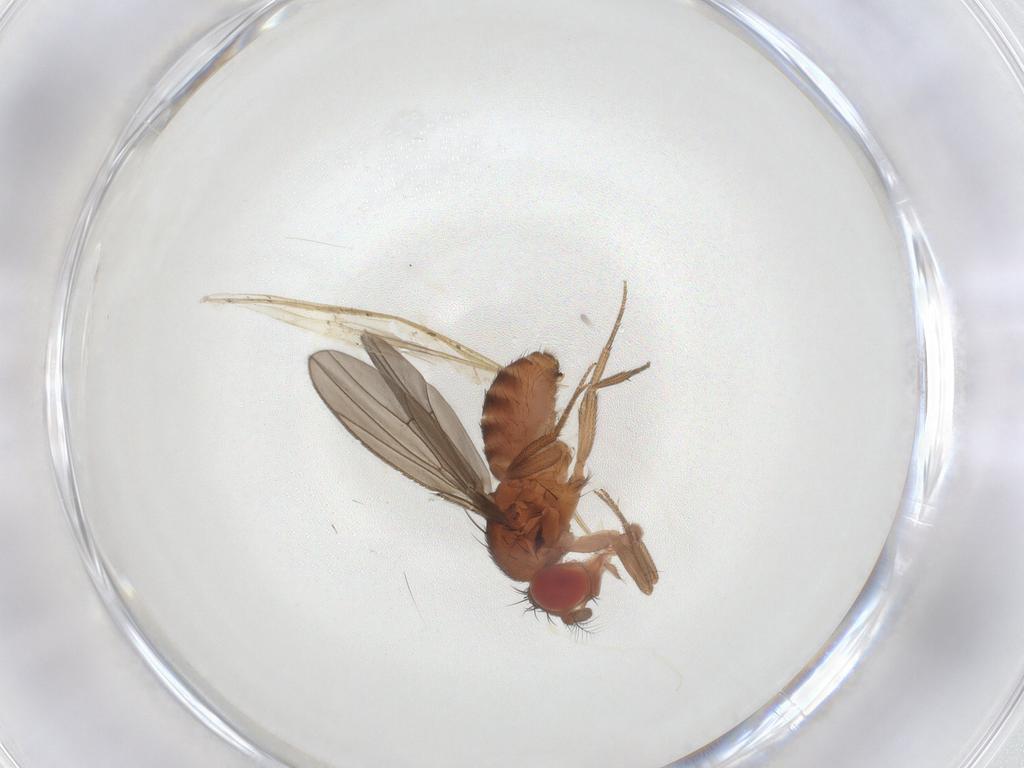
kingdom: Animalia
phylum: Arthropoda
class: Insecta
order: Diptera
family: Drosophilidae
